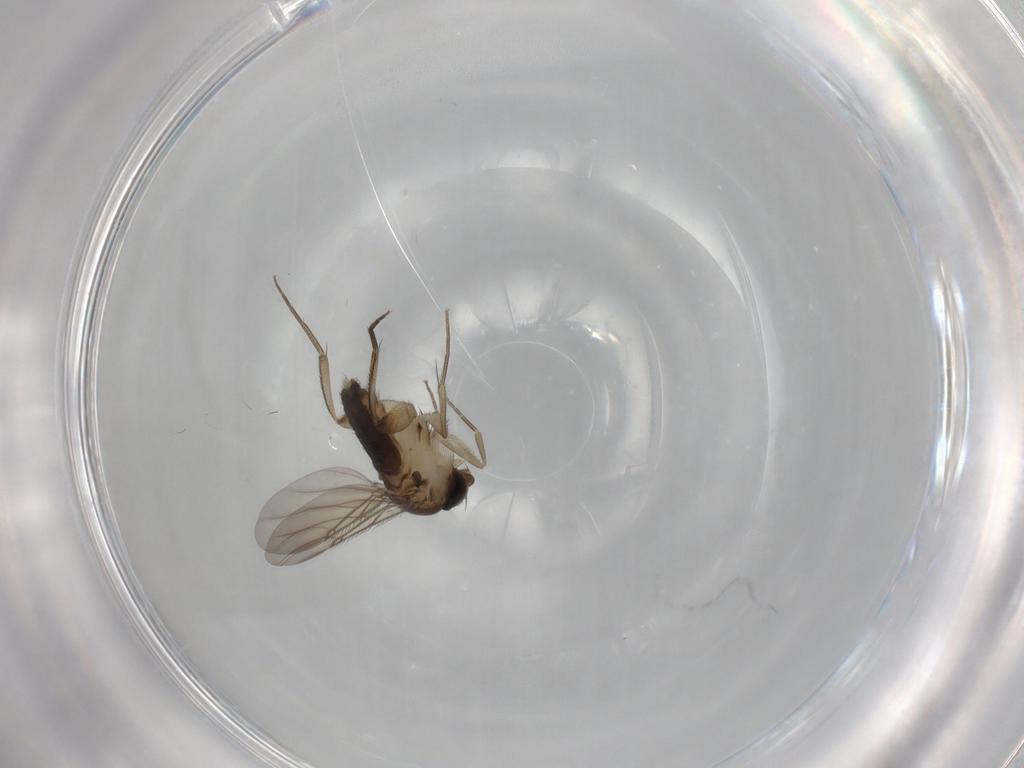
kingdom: Animalia
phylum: Arthropoda
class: Insecta
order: Diptera
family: Phoridae
